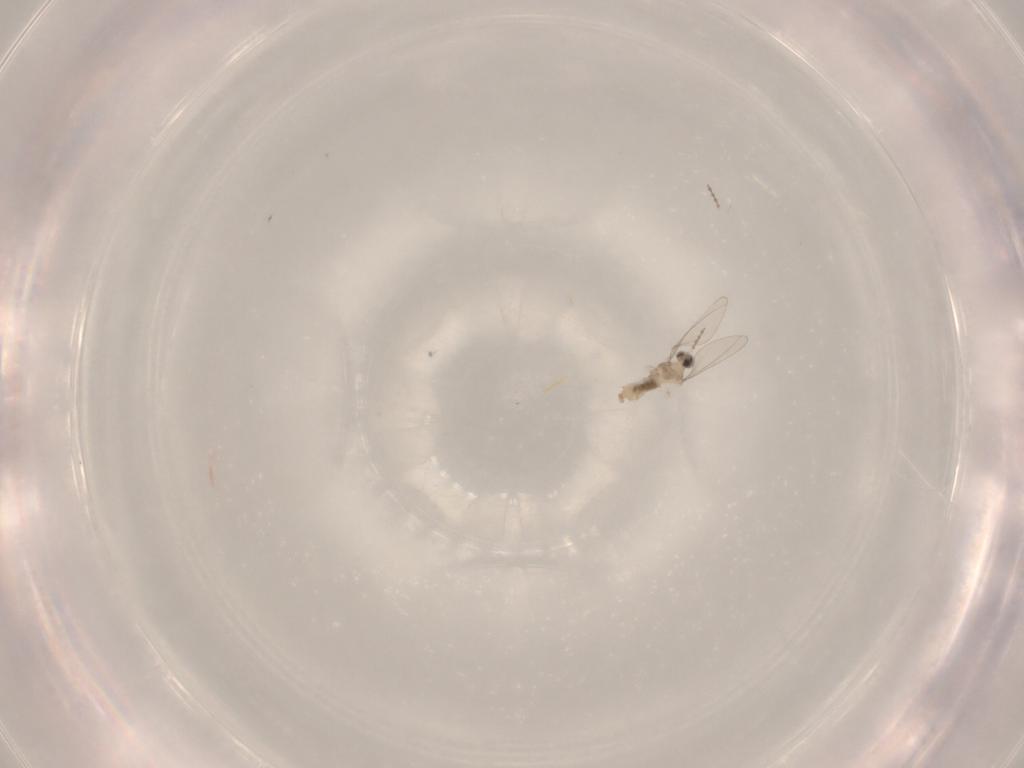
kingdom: Animalia
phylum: Arthropoda
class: Insecta
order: Diptera
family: Cecidomyiidae
